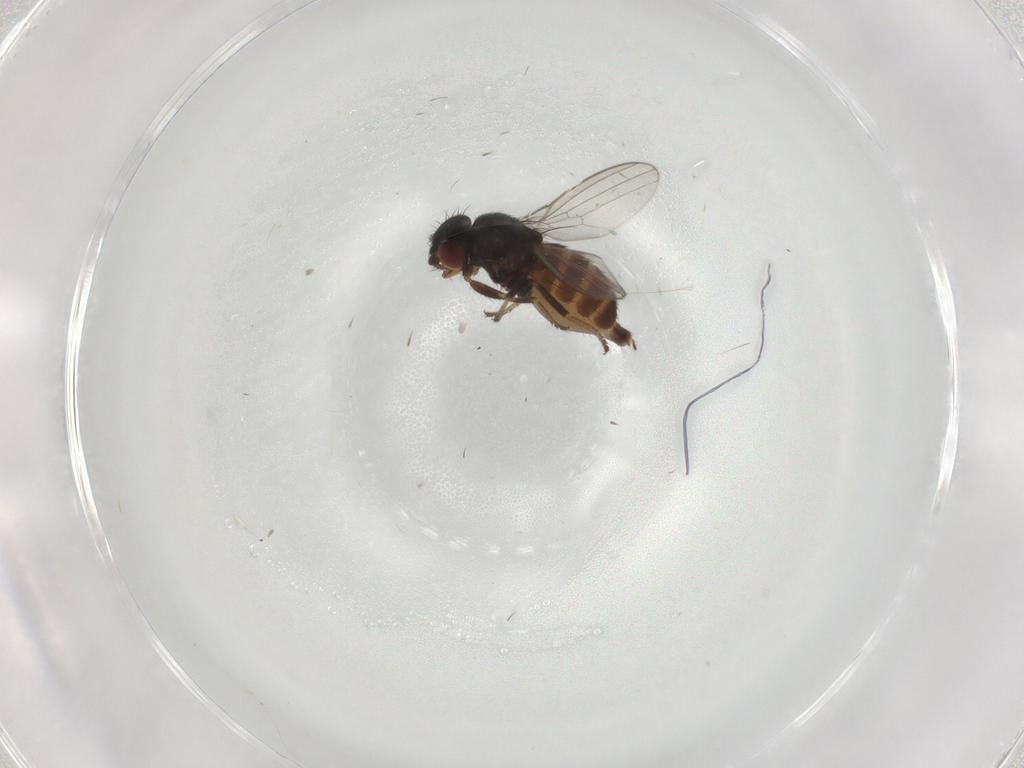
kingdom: Animalia
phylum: Arthropoda
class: Insecta
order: Diptera
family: Milichiidae
